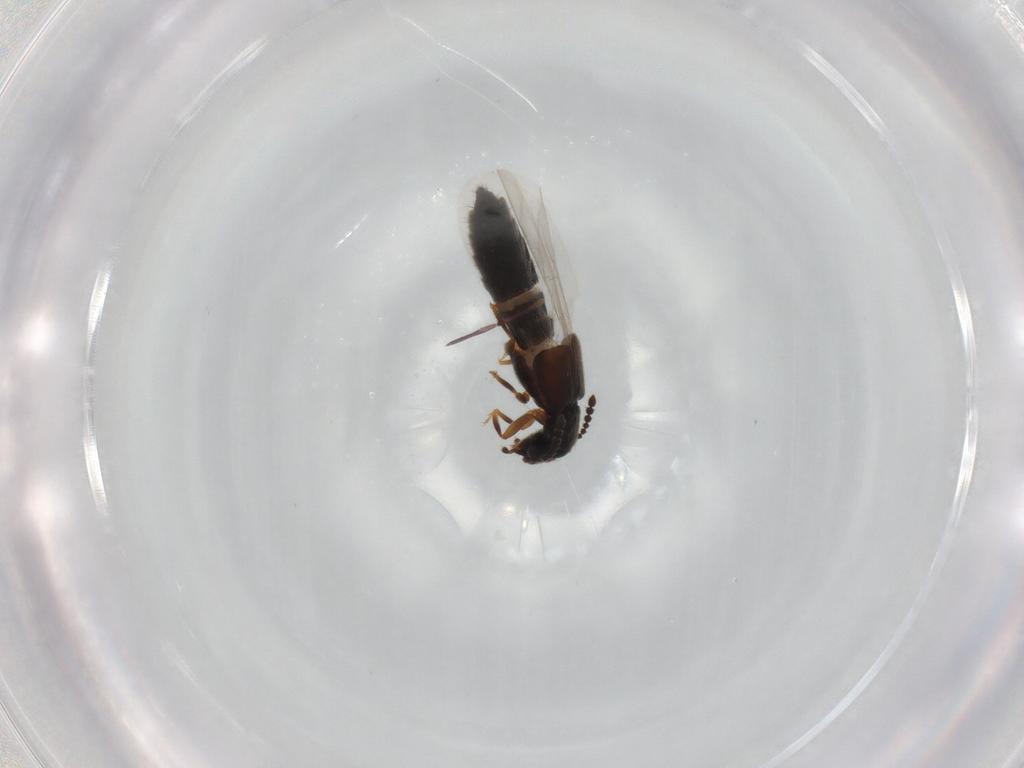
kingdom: Animalia
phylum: Arthropoda
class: Insecta
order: Coleoptera
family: Staphylinidae
